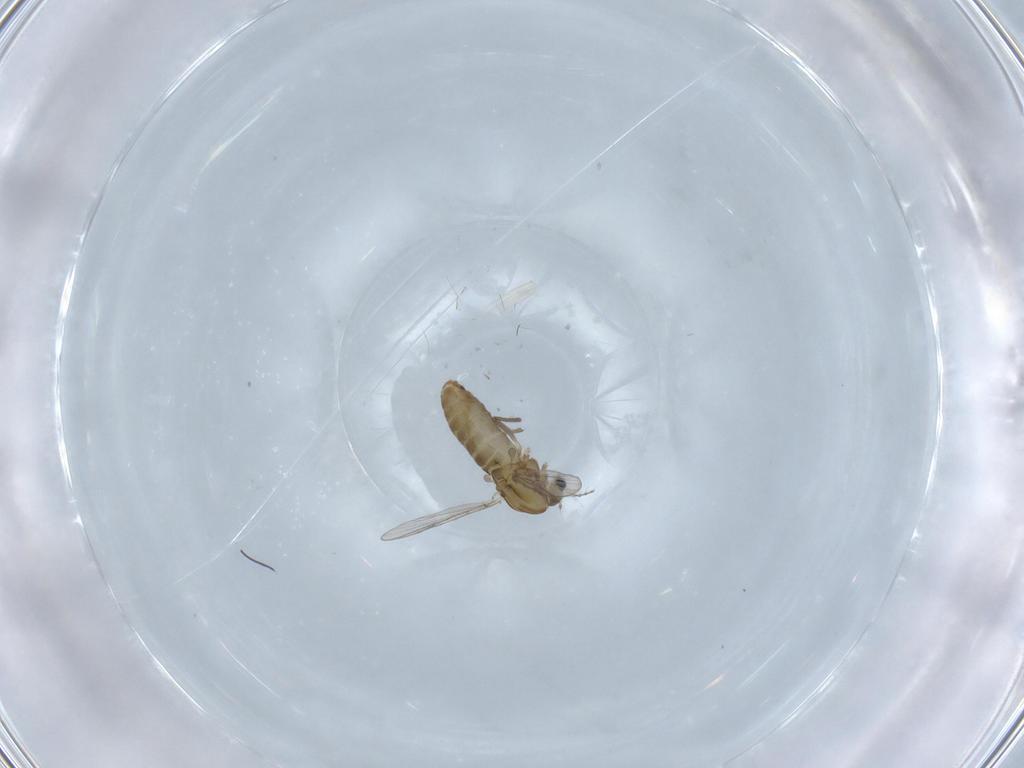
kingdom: Animalia
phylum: Arthropoda
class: Insecta
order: Diptera
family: Chironomidae
